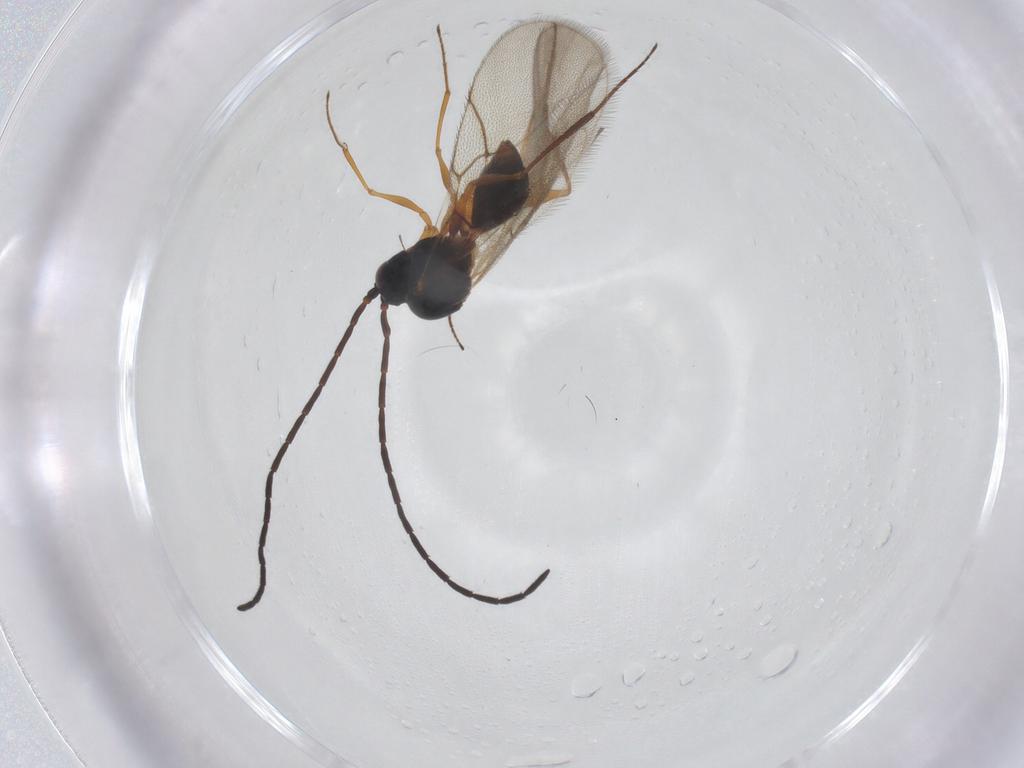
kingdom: Animalia
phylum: Arthropoda
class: Insecta
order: Hymenoptera
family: Figitidae
